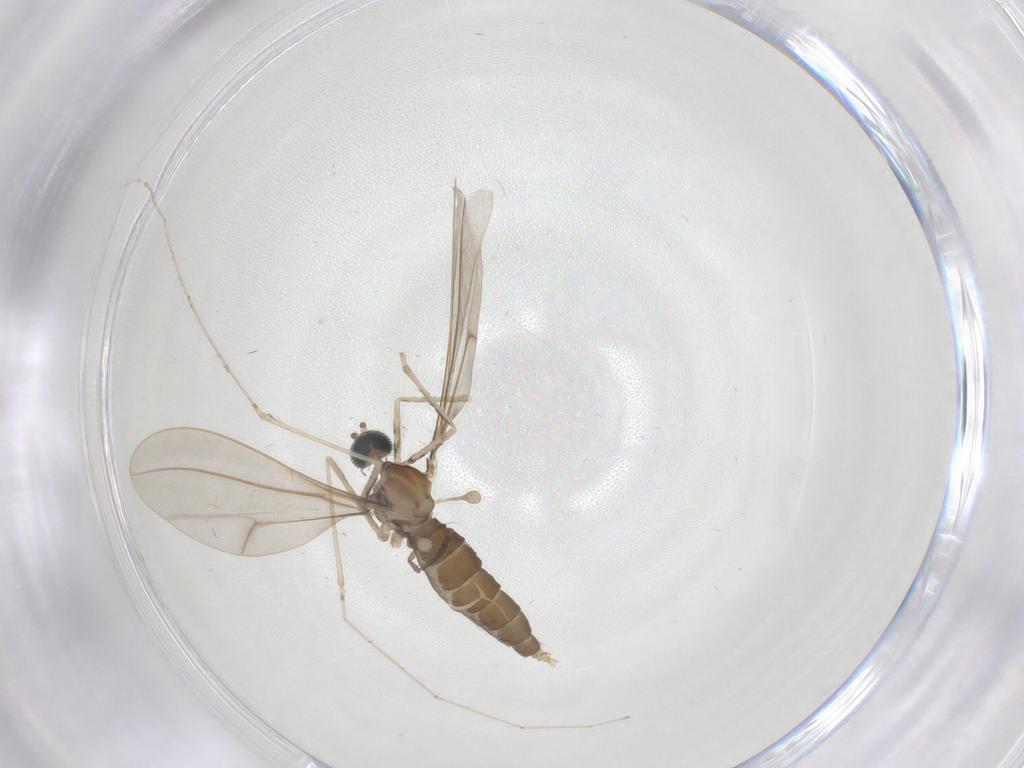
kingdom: Animalia
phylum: Arthropoda
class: Insecta
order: Diptera
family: Cecidomyiidae
